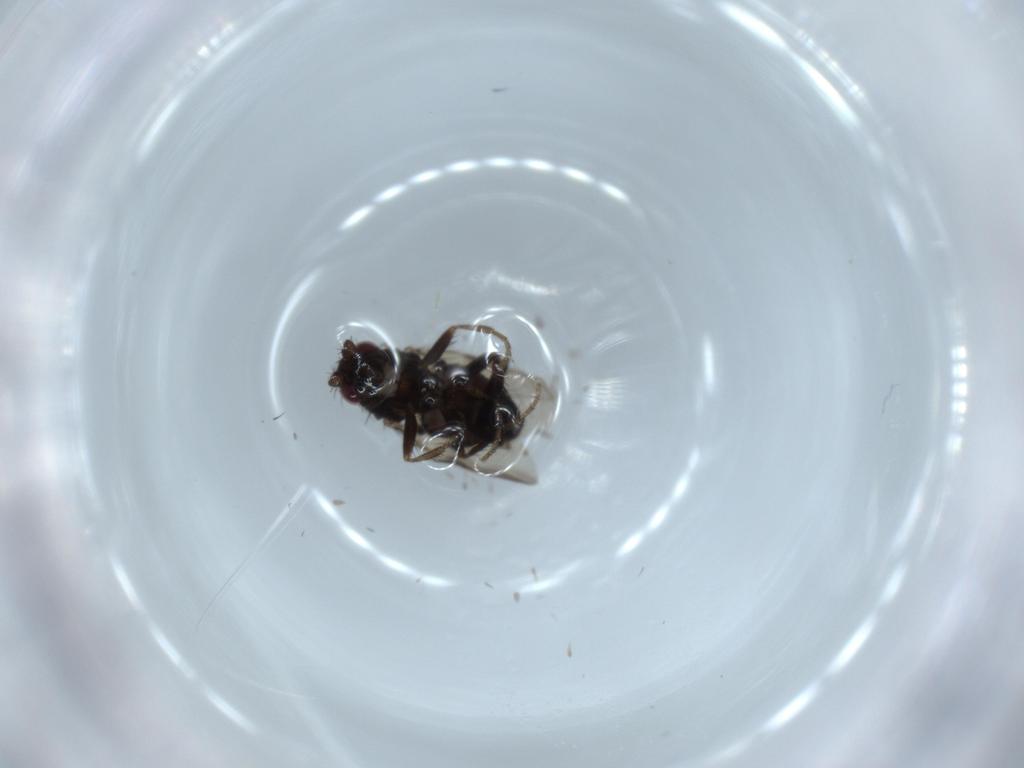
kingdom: Animalia
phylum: Arthropoda
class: Insecta
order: Diptera
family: Sphaeroceridae
